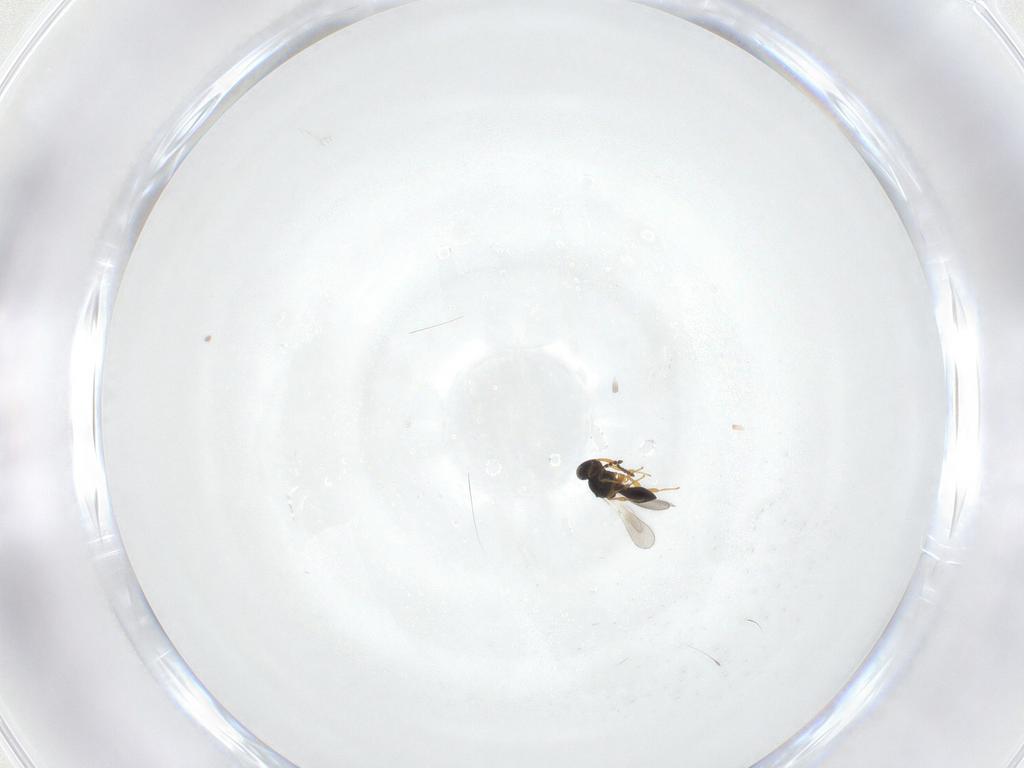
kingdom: Animalia
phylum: Arthropoda
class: Insecta
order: Hymenoptera
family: Platygastridae
